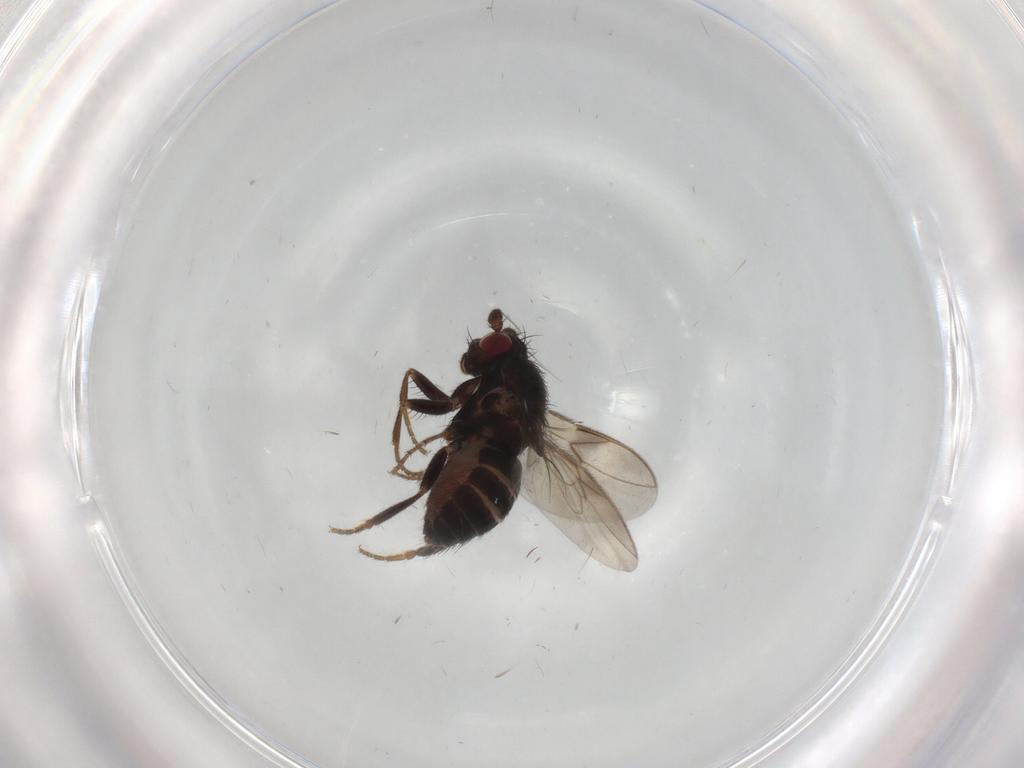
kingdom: Animalia
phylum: Arthropoda
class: Insecta
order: Diptera
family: Sphaeroceridae
